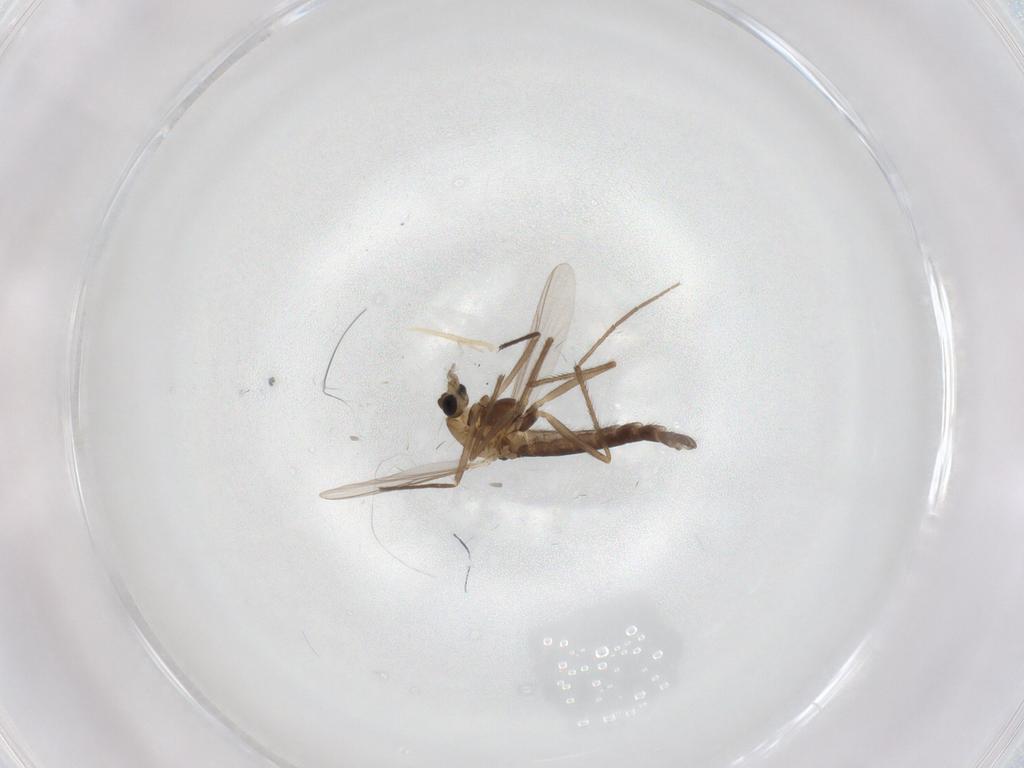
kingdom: Animalia
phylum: Arthropoda
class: Insecta
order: Diptera
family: Chironomidae
